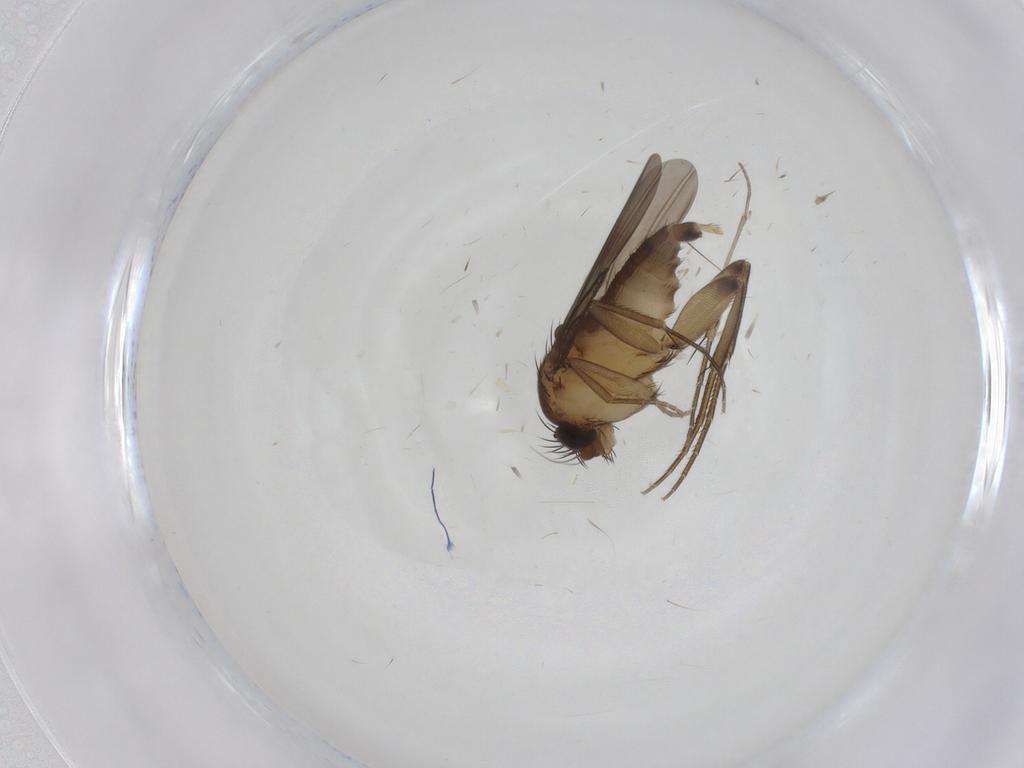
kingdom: Animalia
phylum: Arthropoda
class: Insecta
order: Diptera
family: Phoridae
